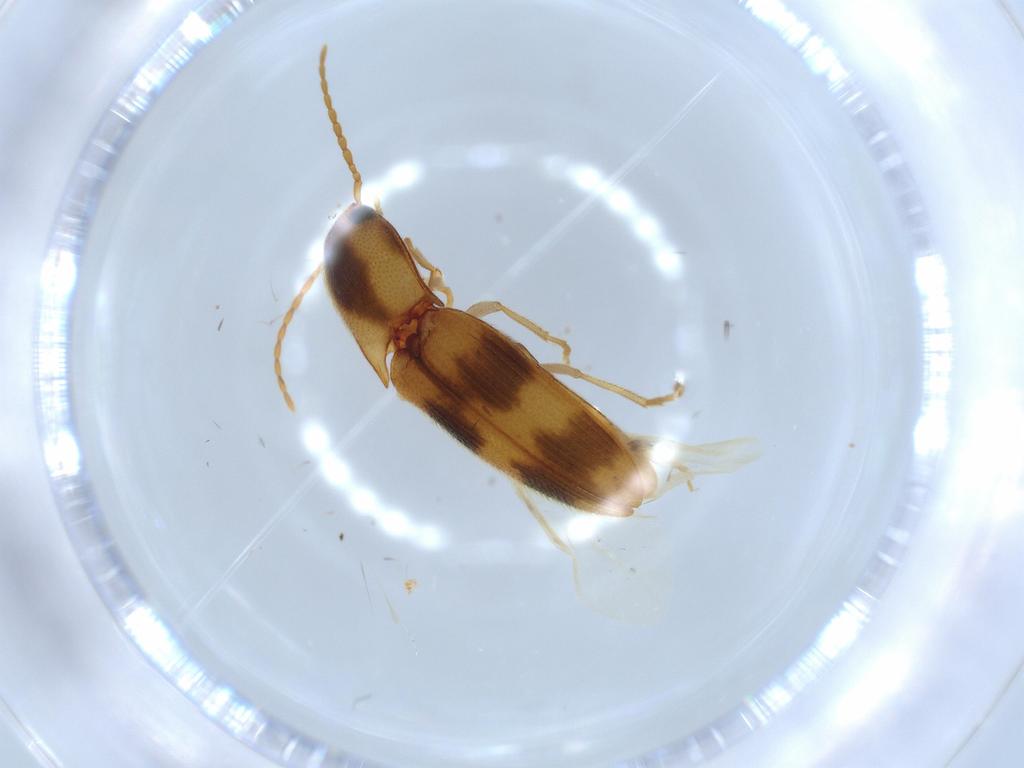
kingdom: Animalia
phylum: Arthropoda
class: Insecta
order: Coleoptera
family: Elateridae
